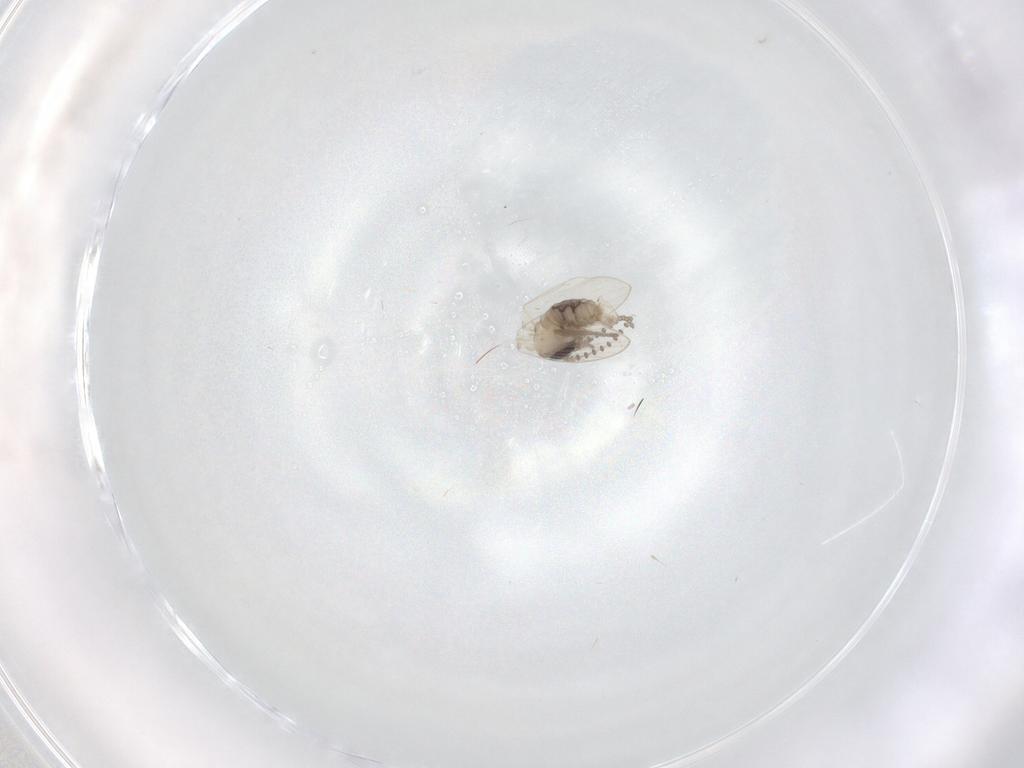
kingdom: Animalia
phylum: Arthropoda
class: Insecta
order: Diptera
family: Psychodidae
